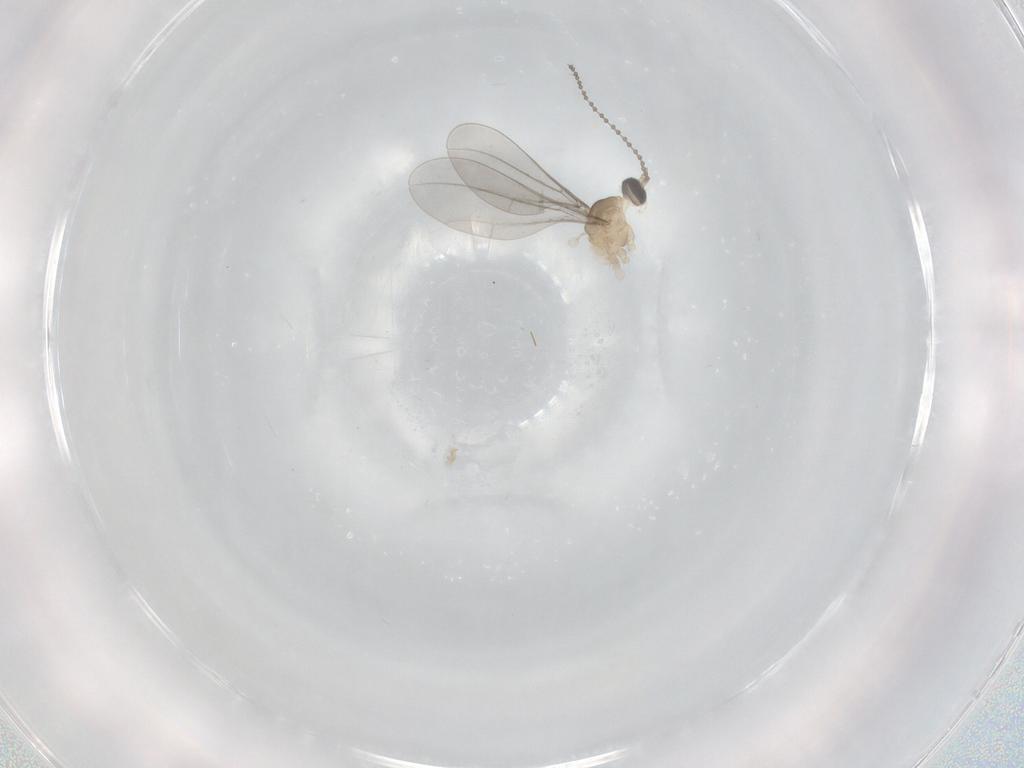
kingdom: Animalia
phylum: Arthropoda
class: Insecta
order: Diptera
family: Cecidomyiidae
